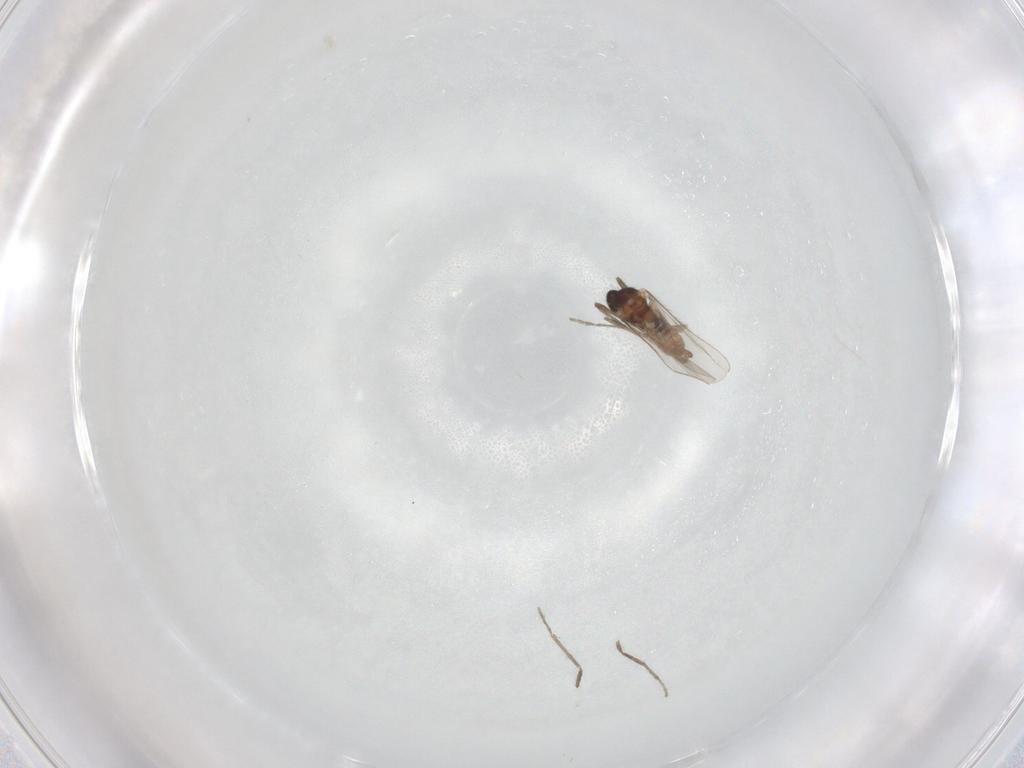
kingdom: Animalia
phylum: Arthropoda
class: Insecta
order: Diptera
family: Cecidomyiidae
